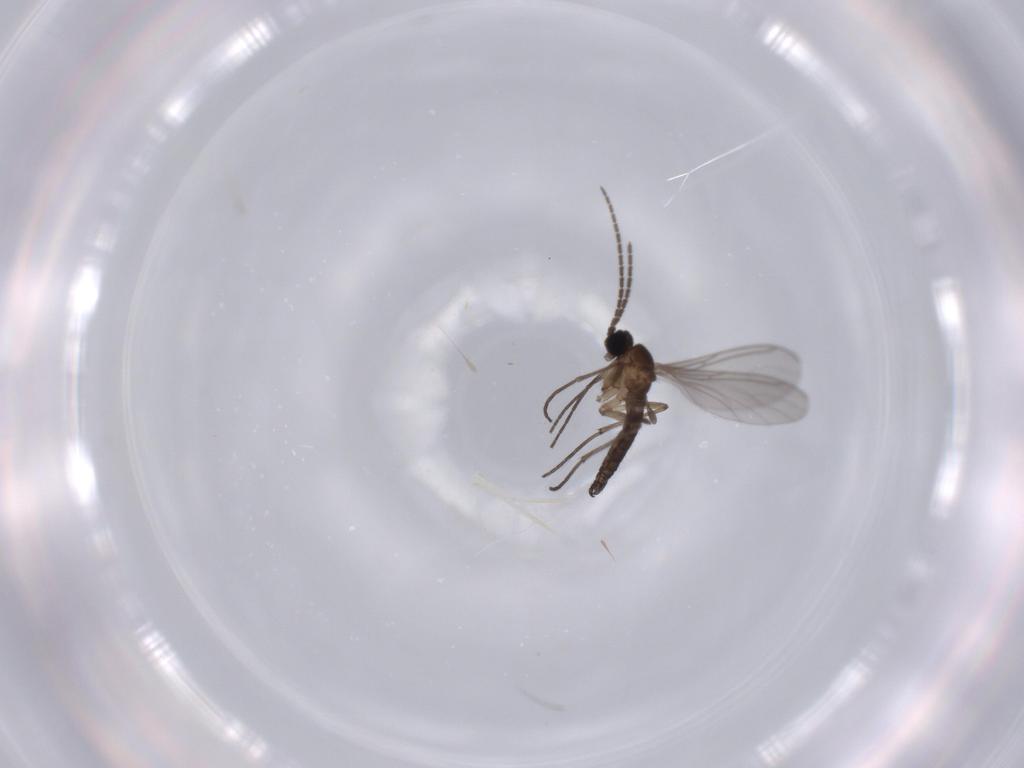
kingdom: Animalia
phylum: Arthropoda
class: Insecta
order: Diptera
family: Sciaridae
